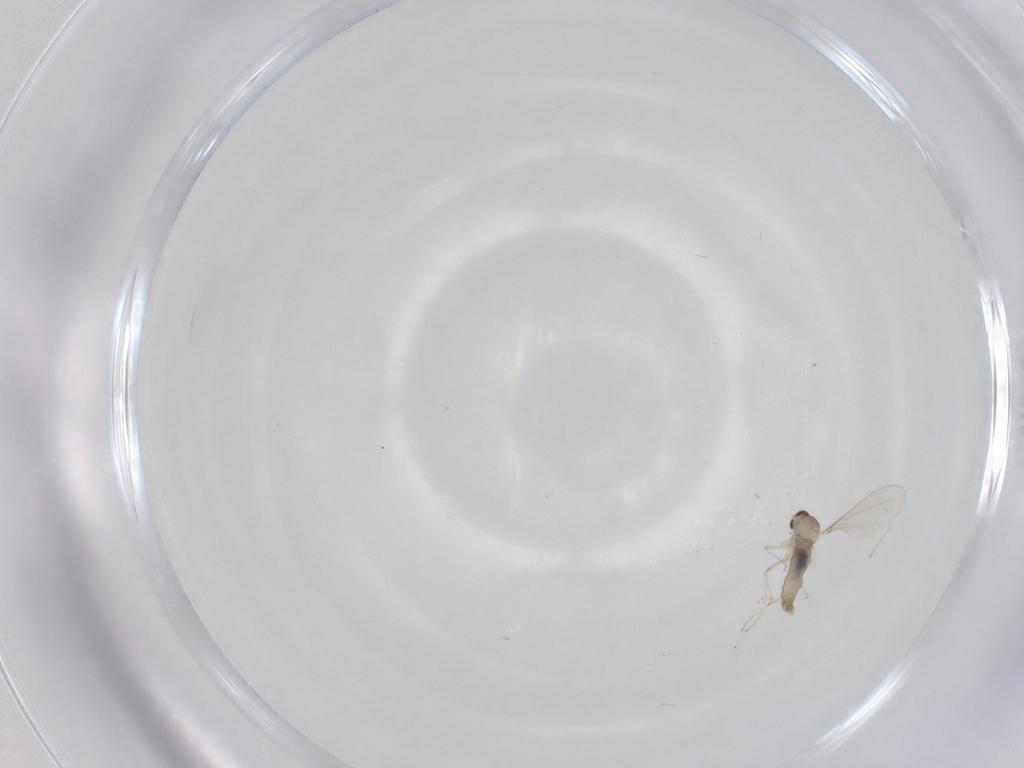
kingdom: Animalia
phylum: Arthropoda
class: Insecta
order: Diptera
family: Cecidomyiidae
